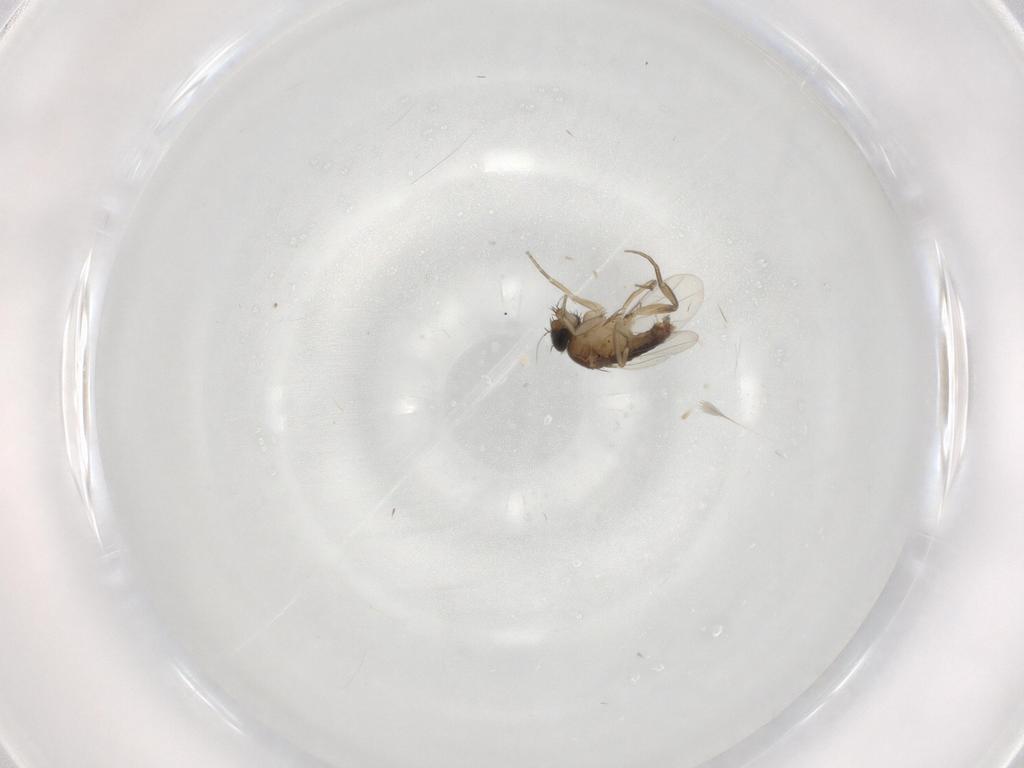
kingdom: Animalia
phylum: Arthropoda
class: Insecta
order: Diptera
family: Phoridae
